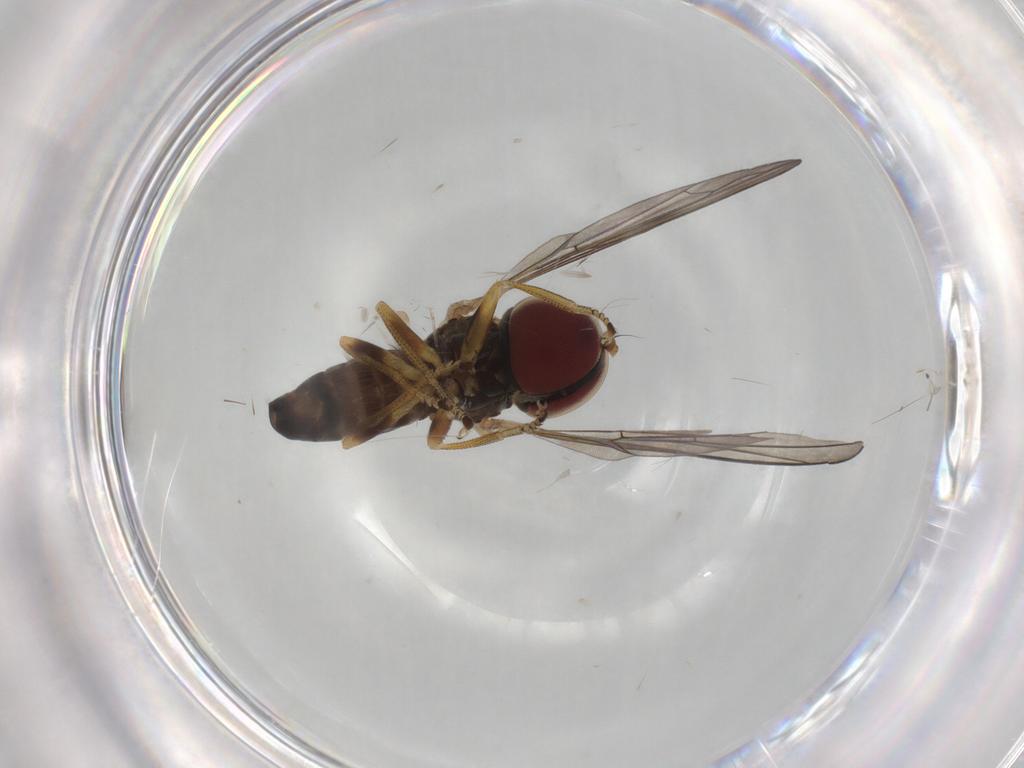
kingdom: Animalia
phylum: Arthropoda
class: Insecta
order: Diptera
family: Pipunculidae
